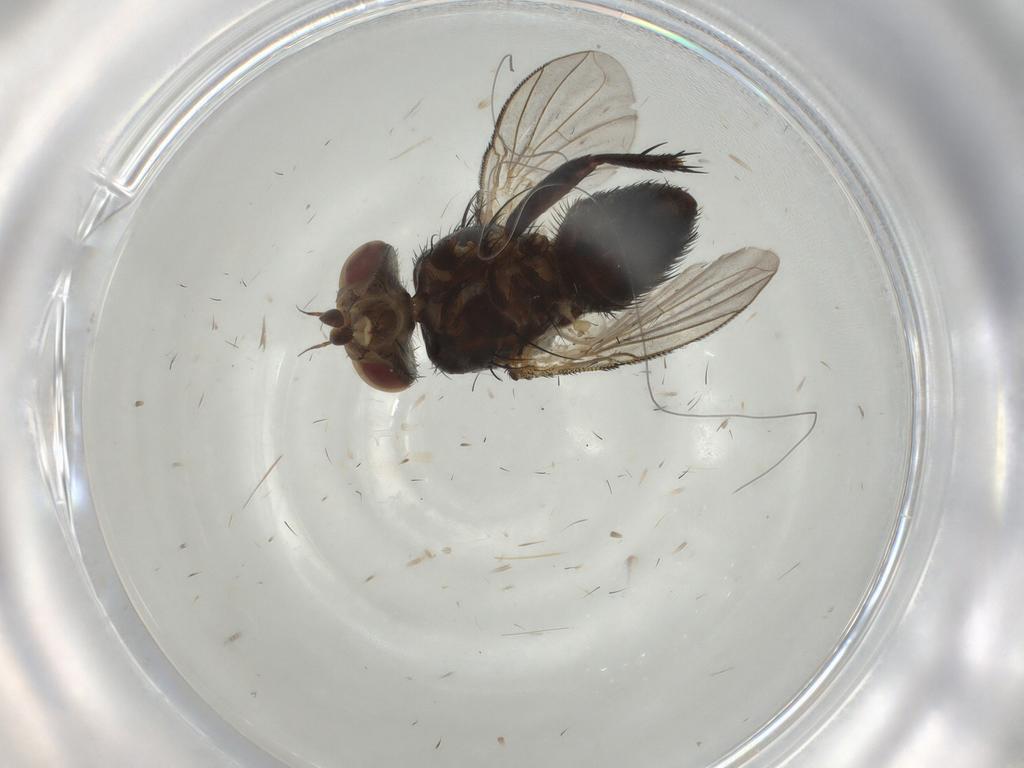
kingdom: Animalia
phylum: Arthropoda
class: Insecta
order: Diptera
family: Tachinidae
